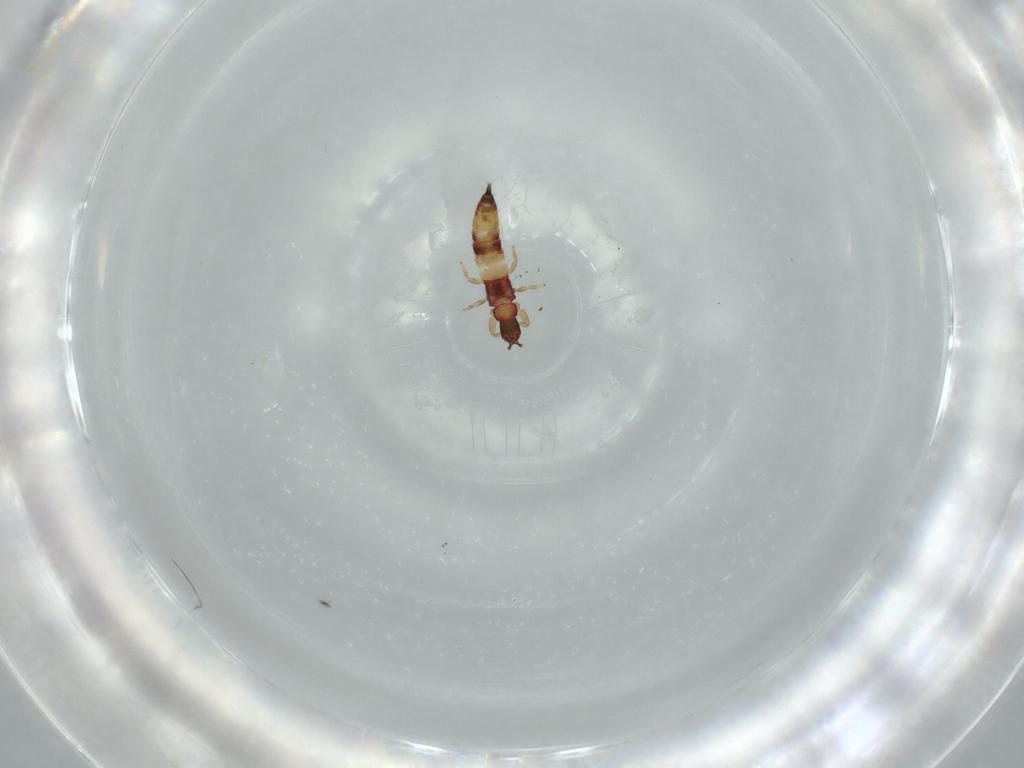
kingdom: Animalia
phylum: Arthropoda
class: Insecta
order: Thysanoptera
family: Phlaeothripidae
